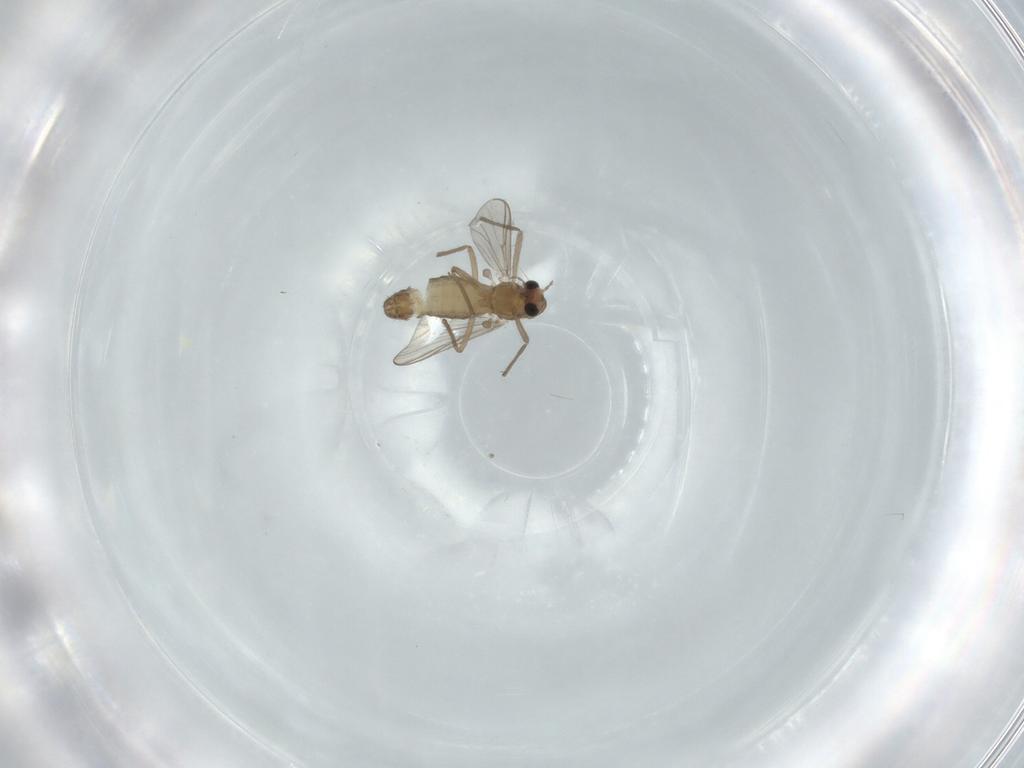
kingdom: Animalia
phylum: Arthropoda
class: Insecta
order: Diptera
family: Chironomidae
